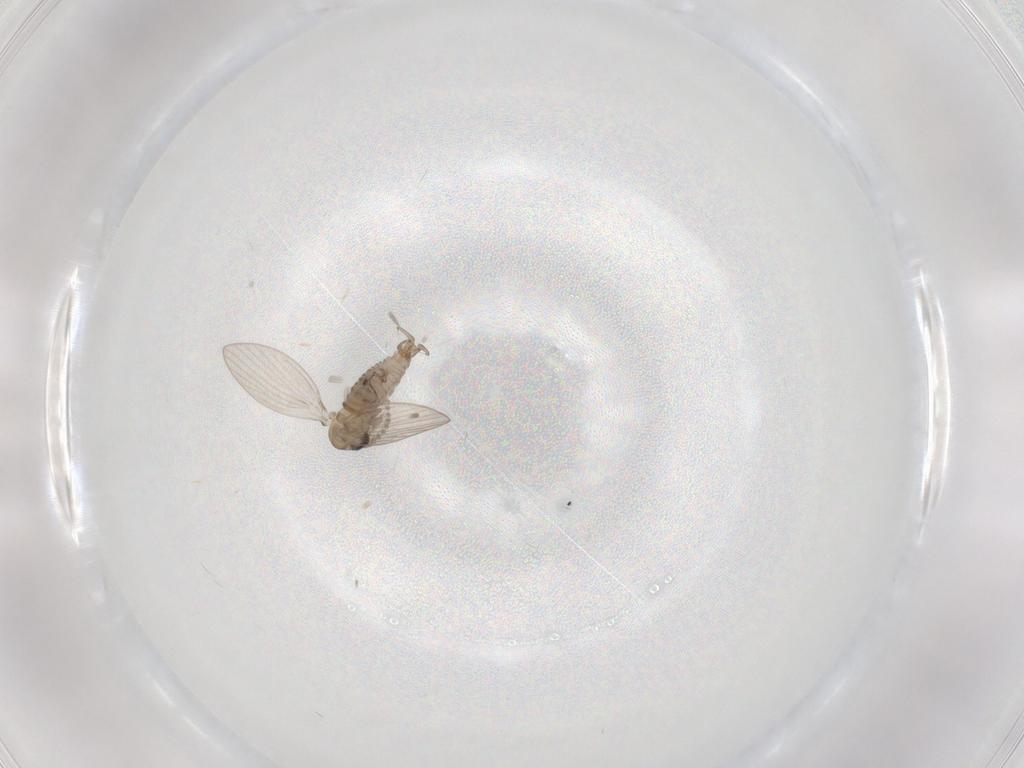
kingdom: Animalia
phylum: Arthropoda
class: Insecta
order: Diptera
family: Psychodidae
